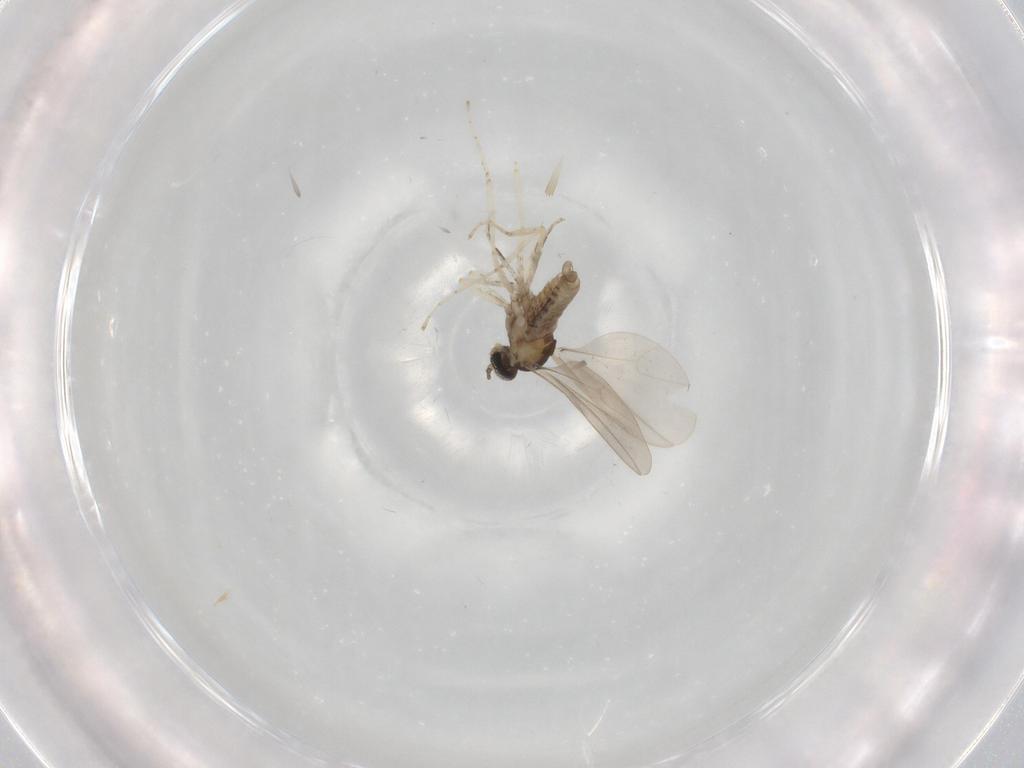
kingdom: Animalia
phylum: Arthropoda
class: Insecta
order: Diptera
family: Cecidomyiidae
